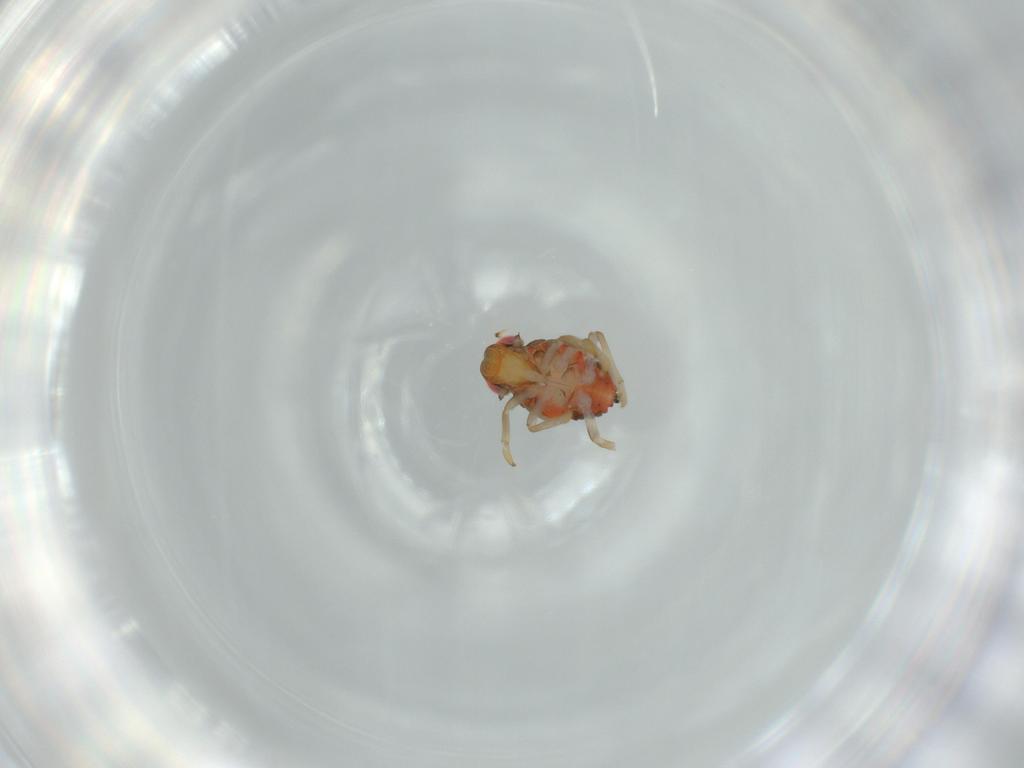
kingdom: Animalia
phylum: Arthropoda
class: Insecta
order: Hemiptera
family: Issidae
